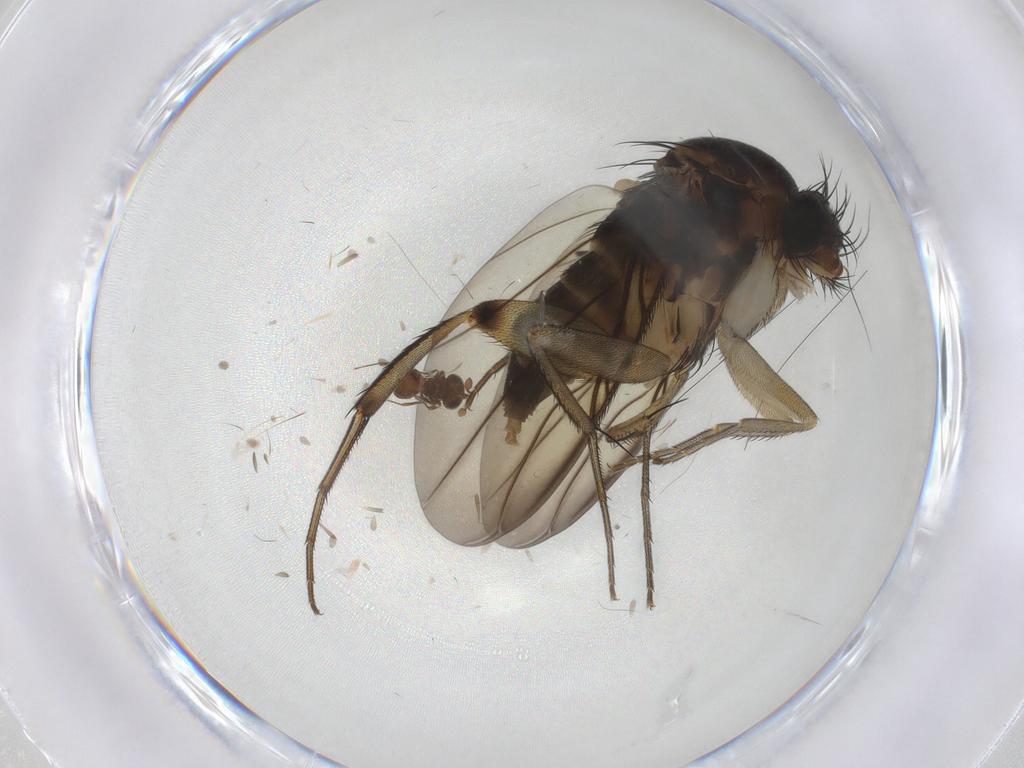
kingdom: Animalia
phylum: Arthropoda
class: Insecta
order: Diptera
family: Phoridae
